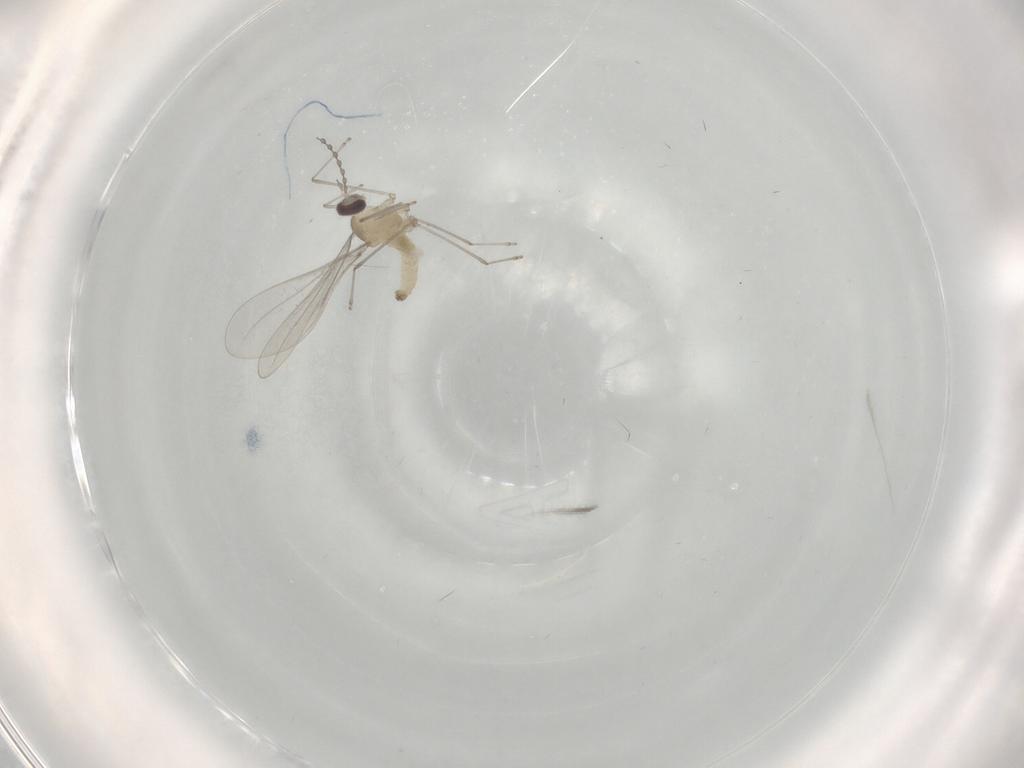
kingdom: Animalia
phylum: Arthropoda
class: Insecta
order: Diptera
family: Cecidomyiidae
